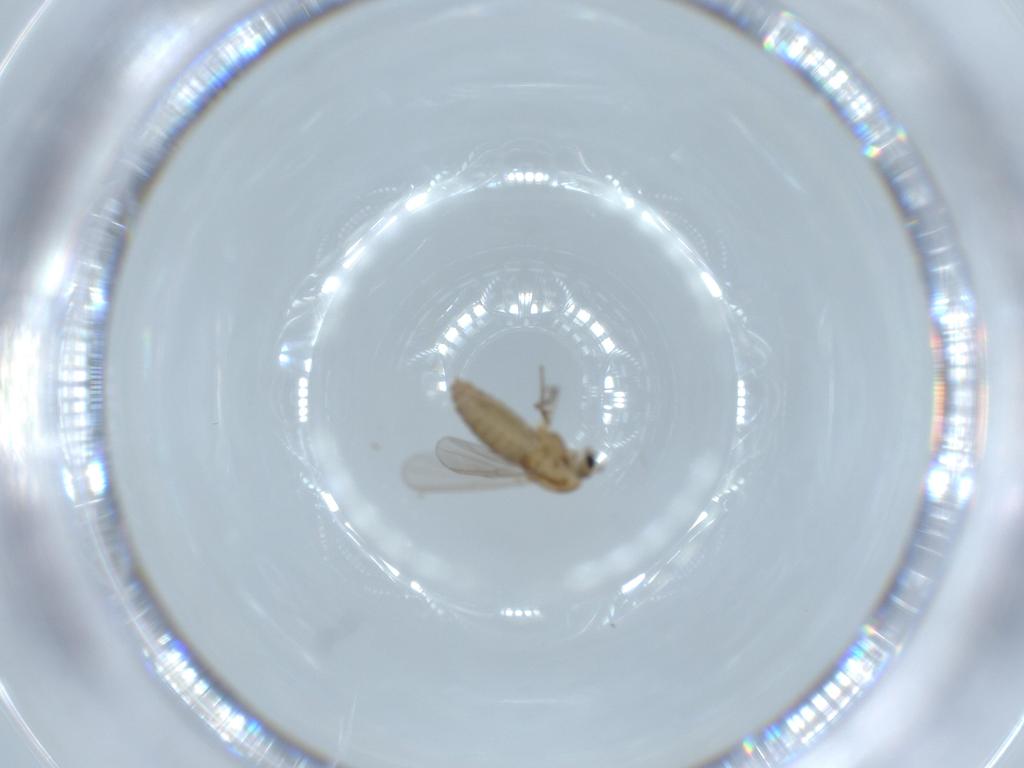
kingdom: Animalia
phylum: Arthropoda
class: Insecta
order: Diptera
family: Chironomidae
